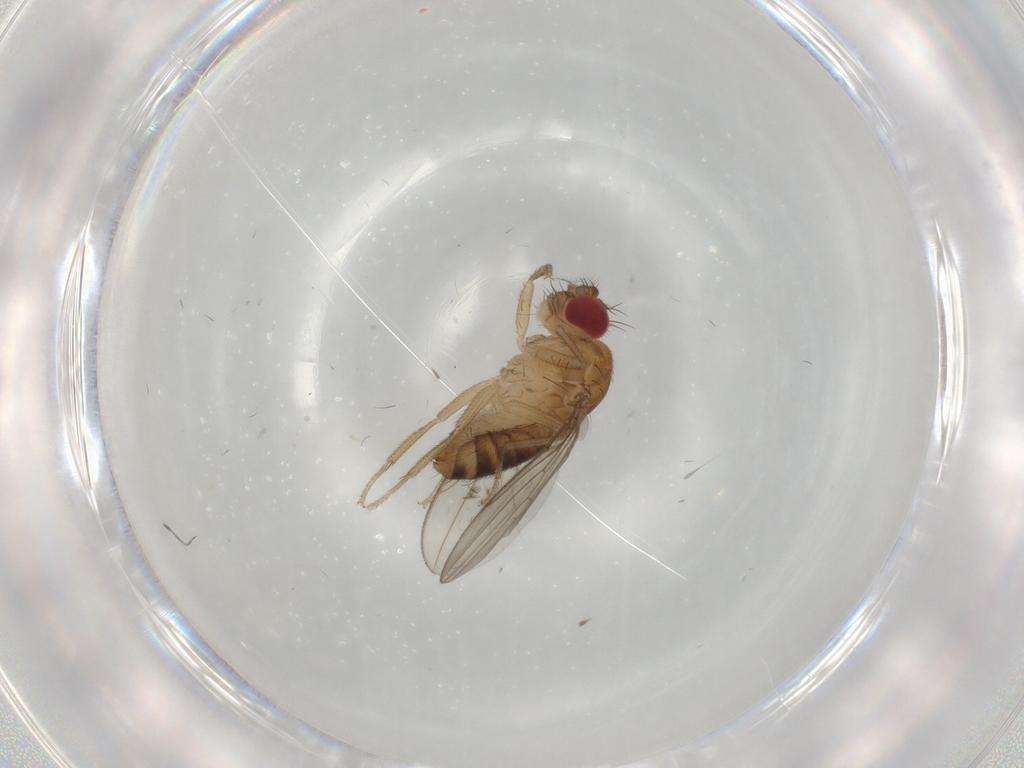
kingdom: Animalia
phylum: Arthropoda
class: Insecta
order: Diptera
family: Drosophilidae
